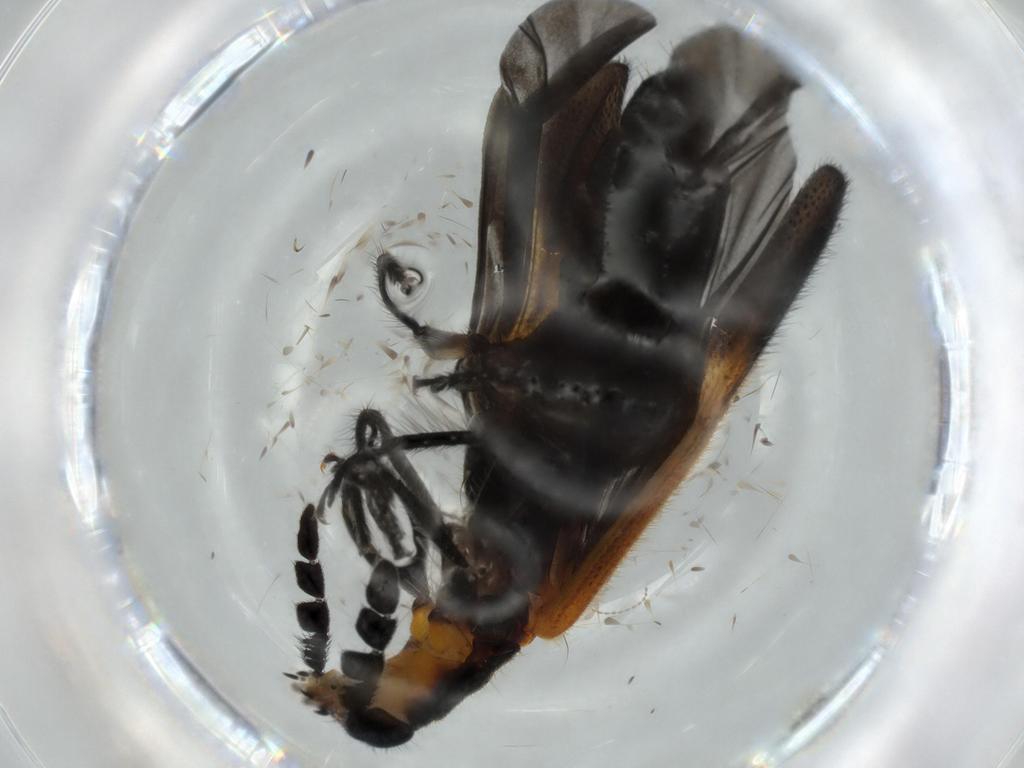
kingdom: Animalia
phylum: Arthropoda
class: Insecta
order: Coleoptera
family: Cleridae
